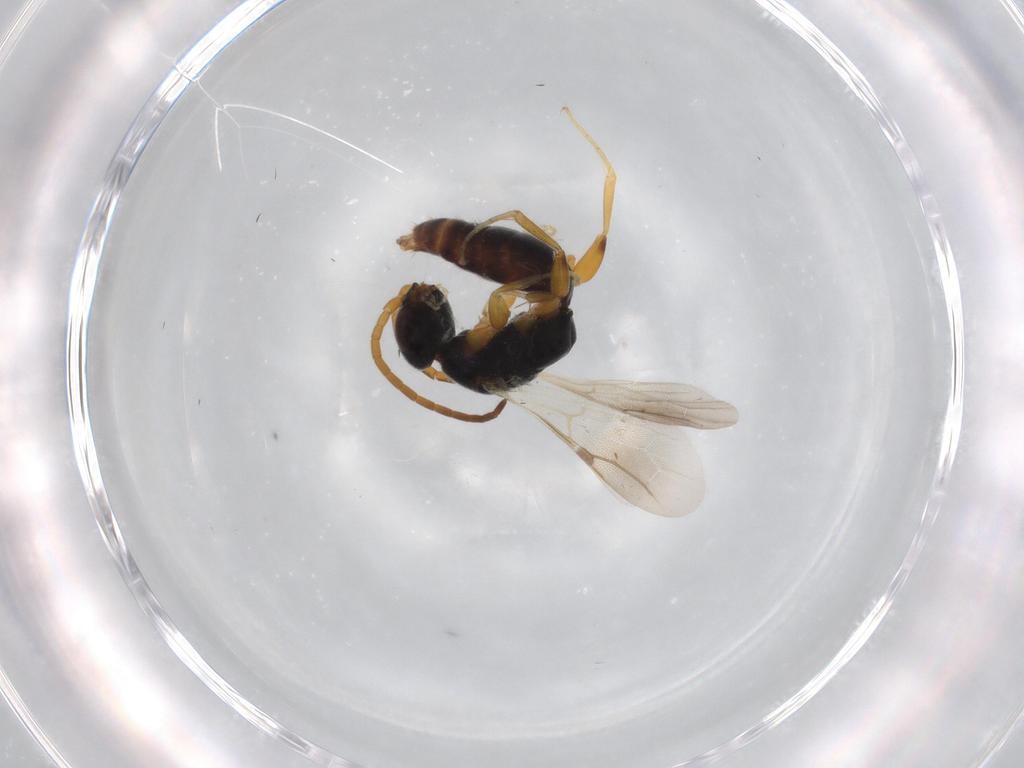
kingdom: Animalia
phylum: Arthropoda
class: Insecta
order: Hymenoptera
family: Bethylidae
